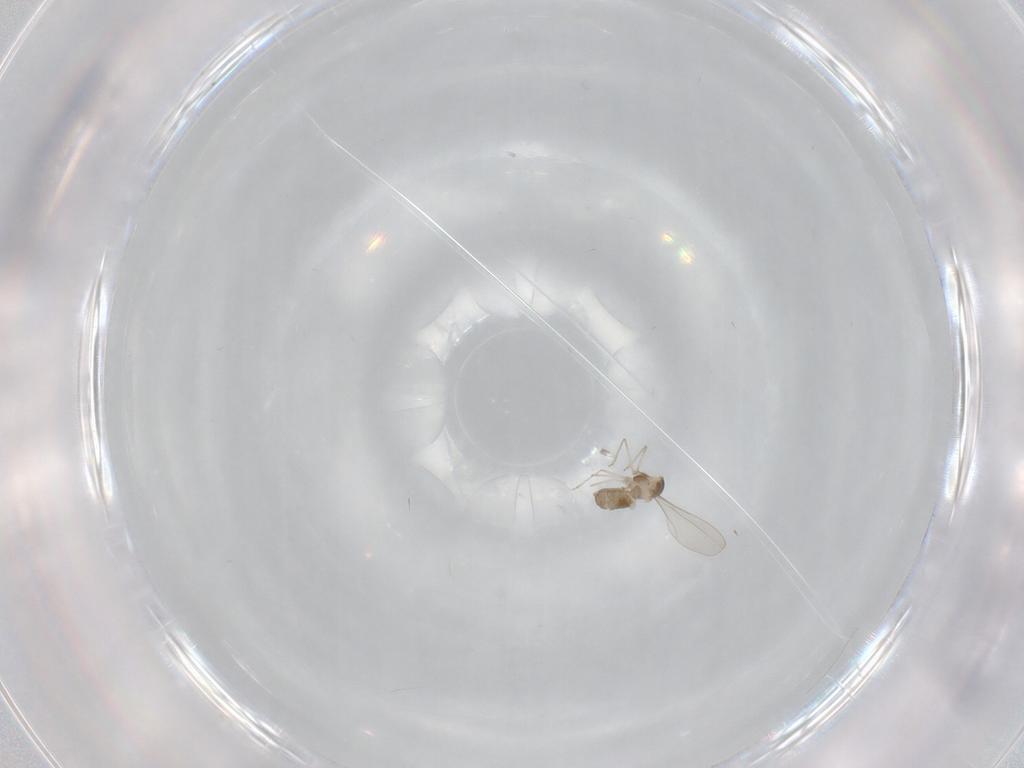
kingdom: Animalia
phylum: Arthropoda
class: Insecta
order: Diptera
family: Cecidomyiidae
